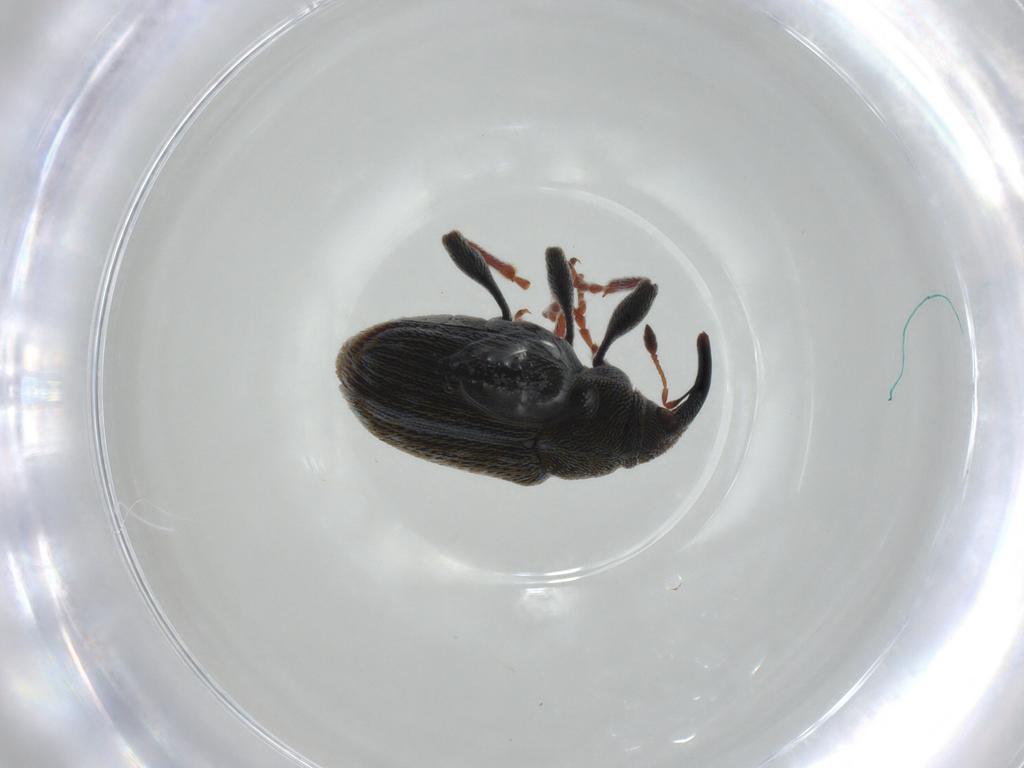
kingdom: Animalia
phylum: Arthropoda
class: Insecta
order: Coleoptera
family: Curculionidae
